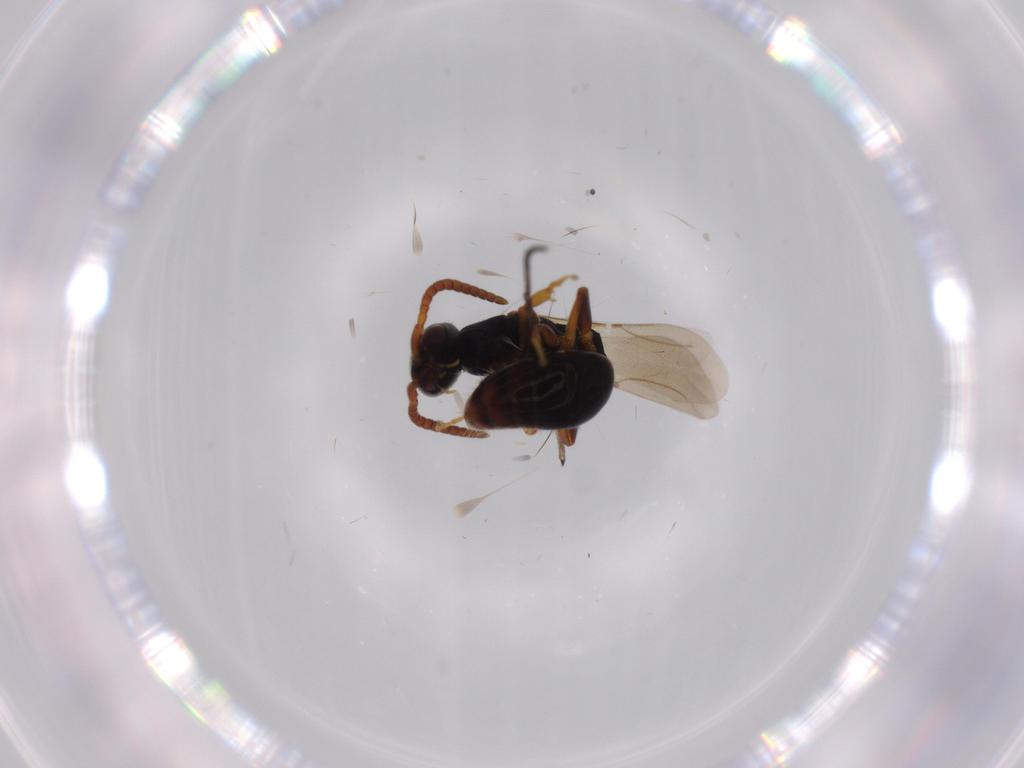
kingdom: Animalia
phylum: Arthropoda
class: Insecta
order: Hymenoptera
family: Bethylidae
